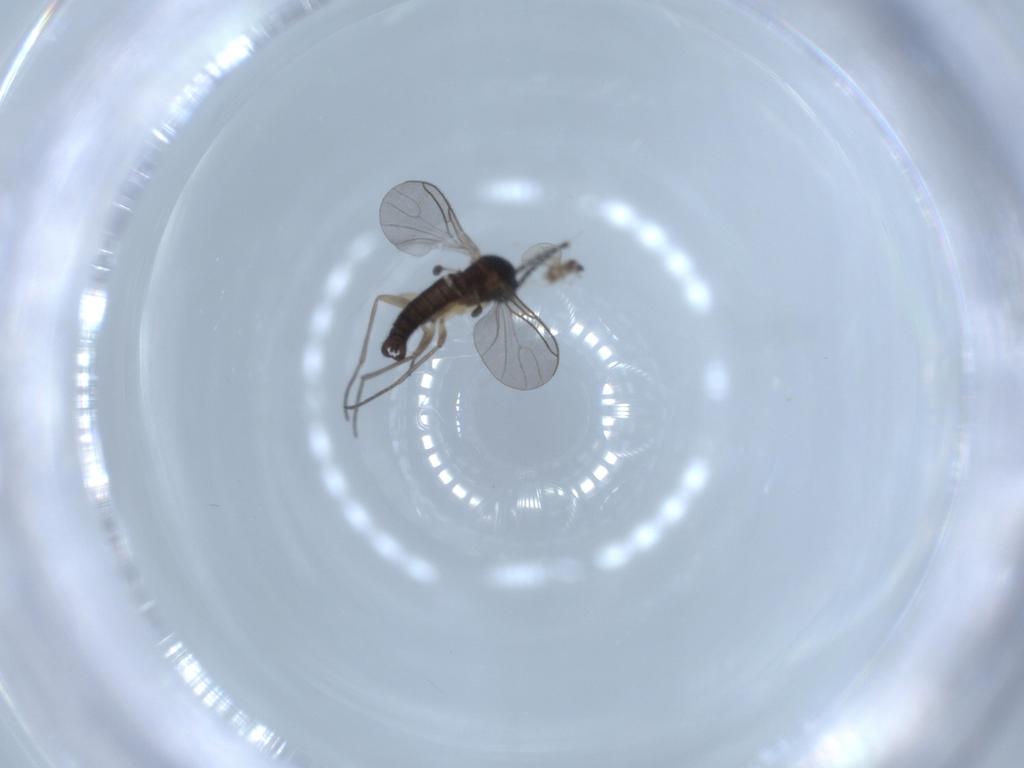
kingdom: Animalia
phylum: Arthropoda
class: Insecta
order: Diptera
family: Sciaridae
